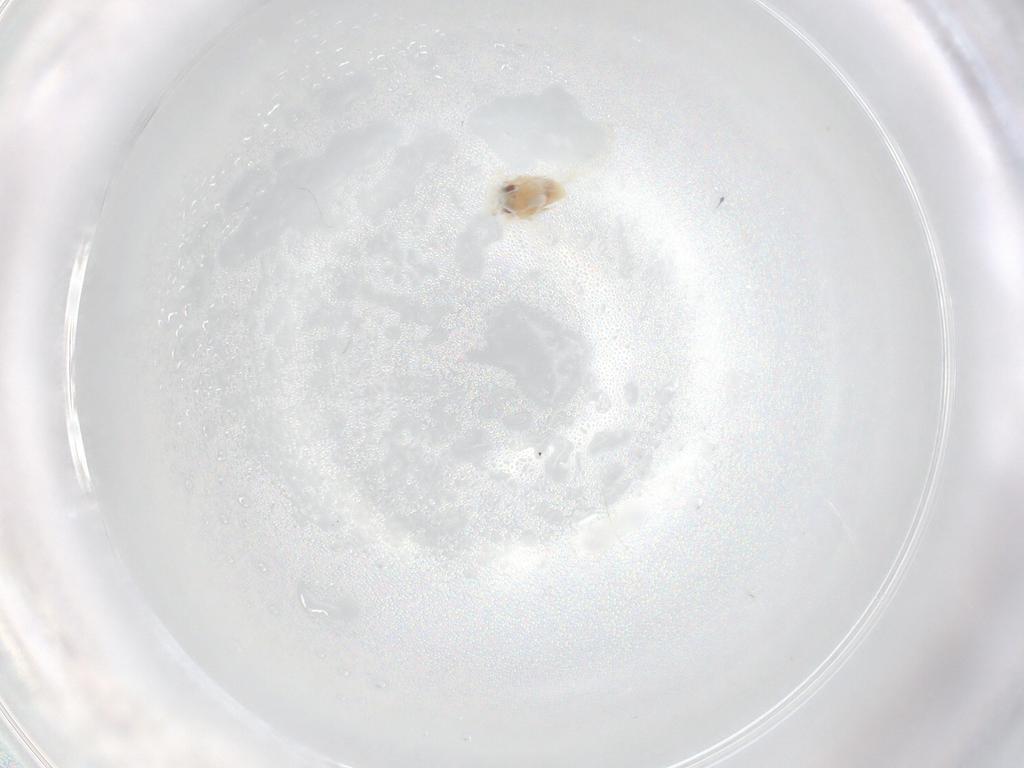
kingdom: Animalia
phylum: Arthropoda
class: Insecta
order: Hemiptera
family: Aleyrodidae
